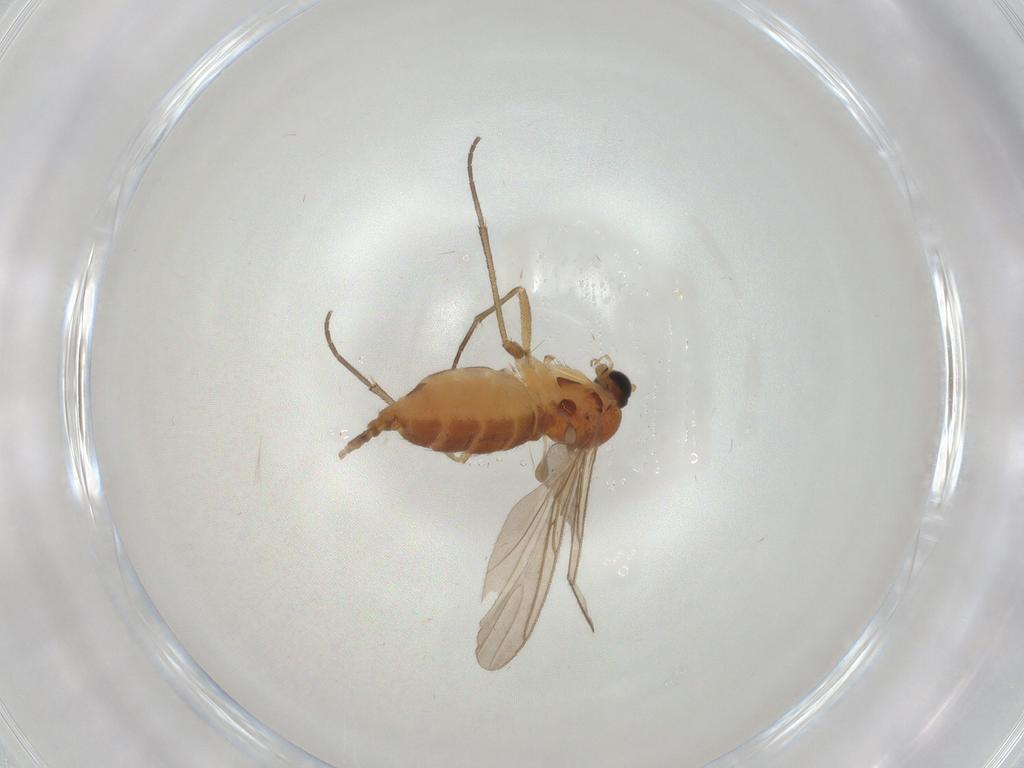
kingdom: Animalia
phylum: Arthropoda
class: Insecta
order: Diptera
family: Sciaridae
